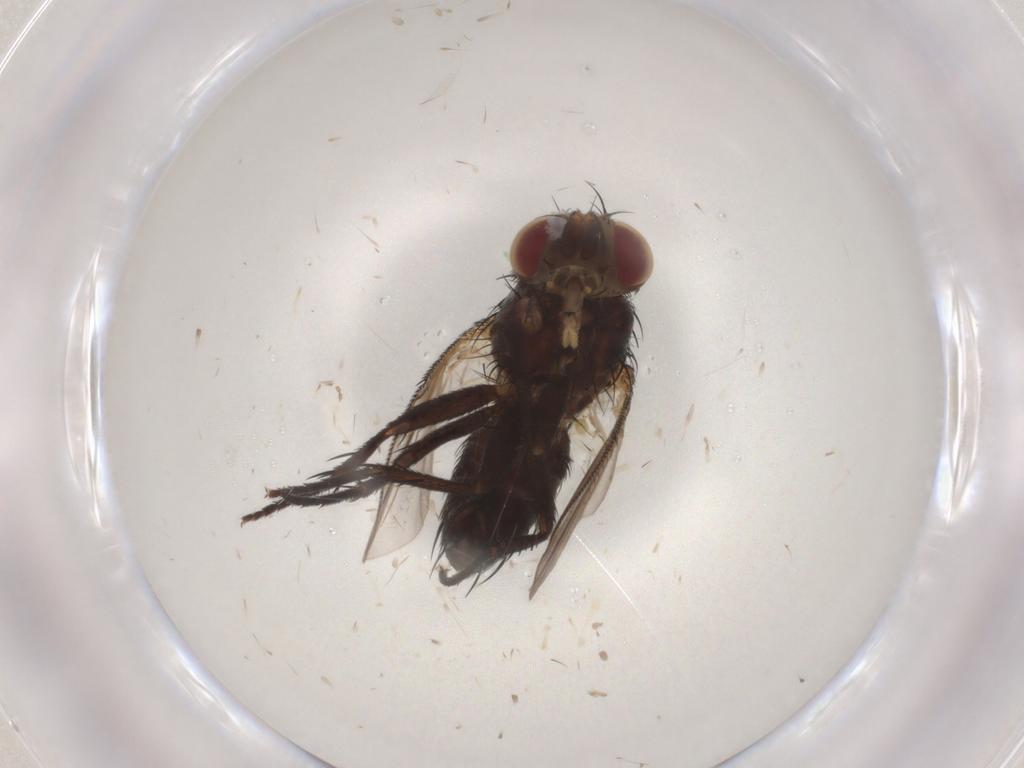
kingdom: Animalia
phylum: Arthropoda
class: Insecta
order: Diptera
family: Tachinidae
